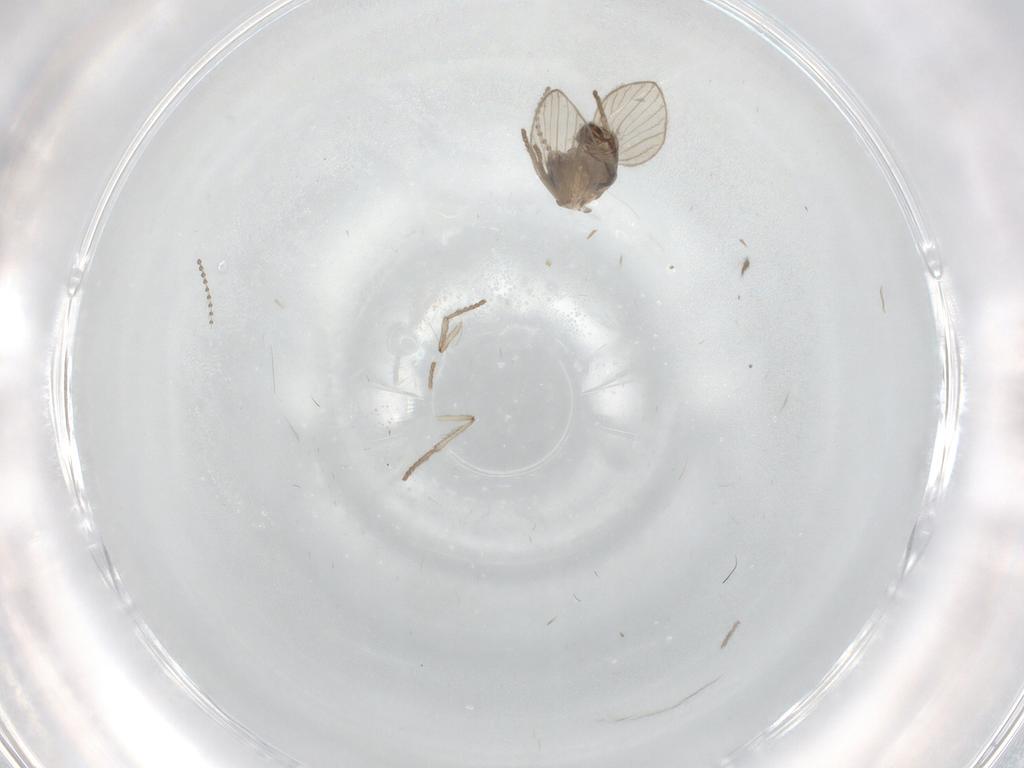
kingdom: Animalia
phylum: Arthropoda
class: Insecta
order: Diptera
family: Psychodidae
